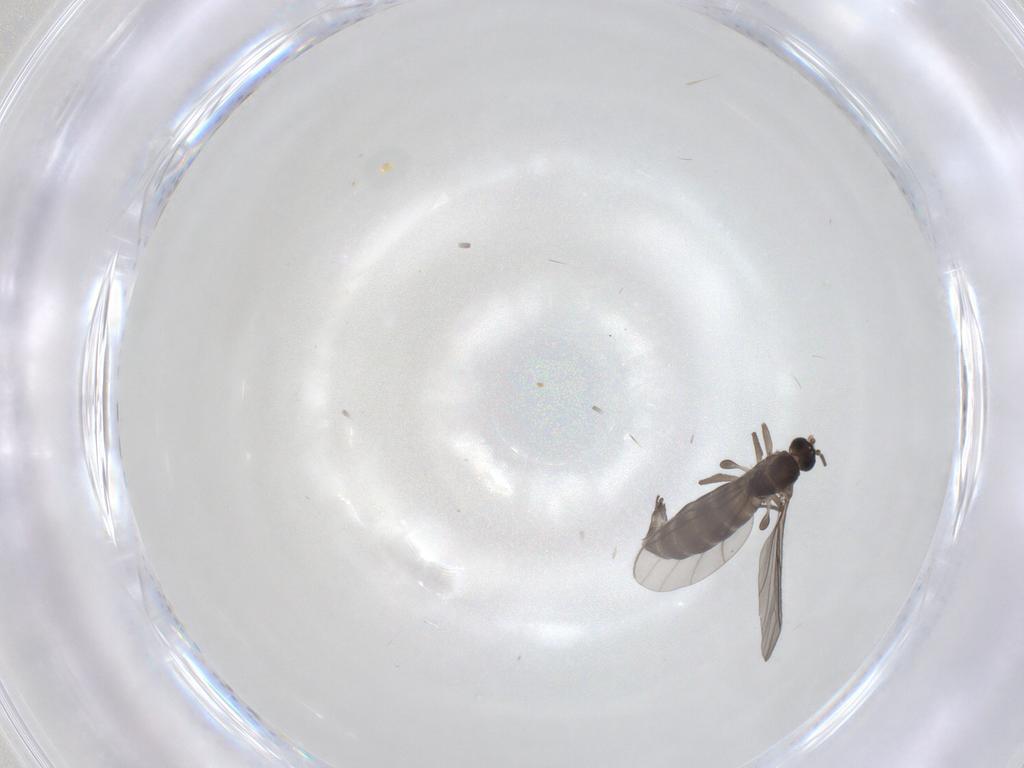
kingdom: Animalia
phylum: Arthropoda
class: Insecta
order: Diptera
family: Sciaridae
